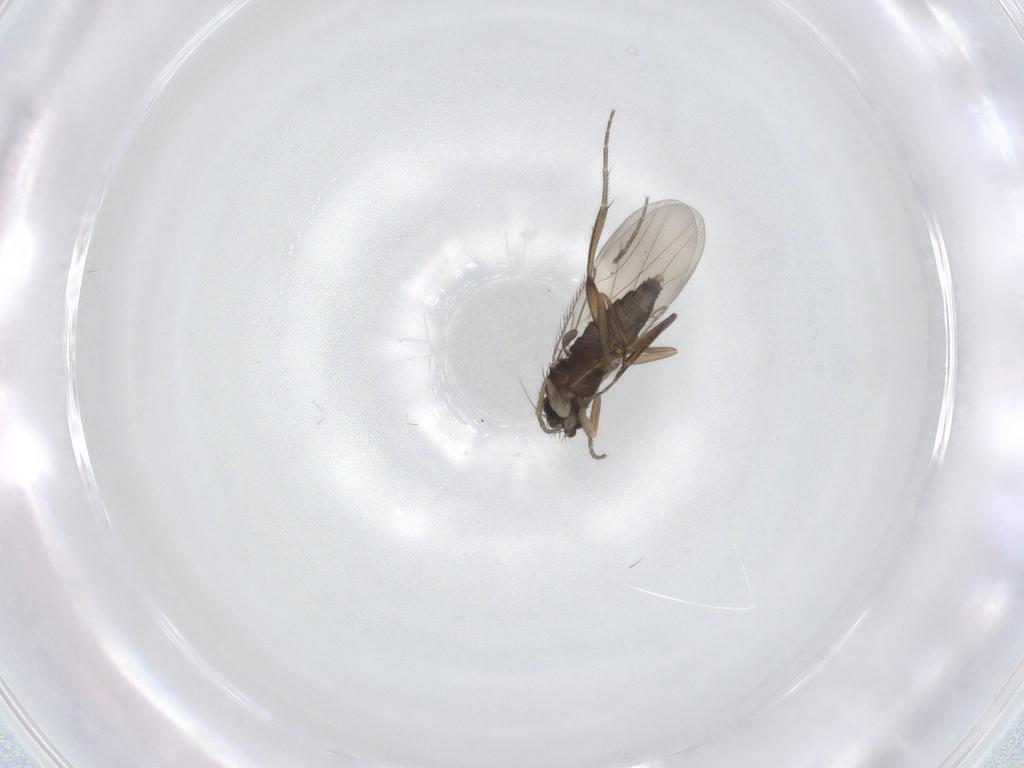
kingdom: Animalia
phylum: Arthropoda
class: Insecta
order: Diptera
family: Phoridae
